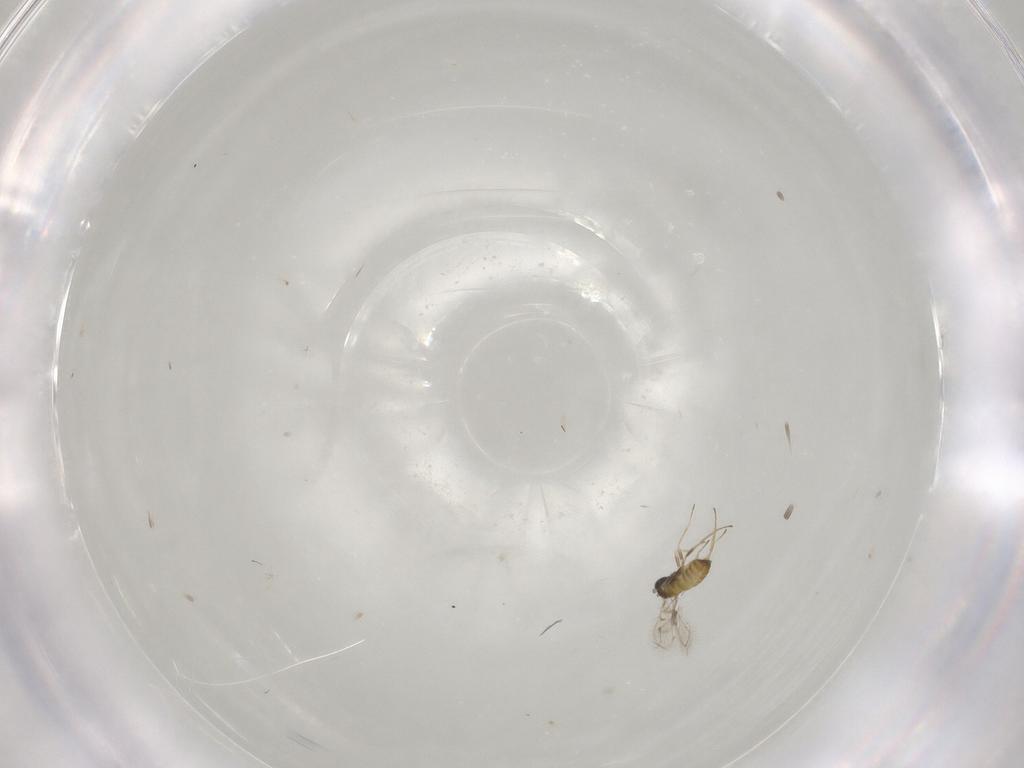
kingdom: Animalia
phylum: Arthropoda
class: Insecta
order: Hymenoptera
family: Trichogrammatidae
